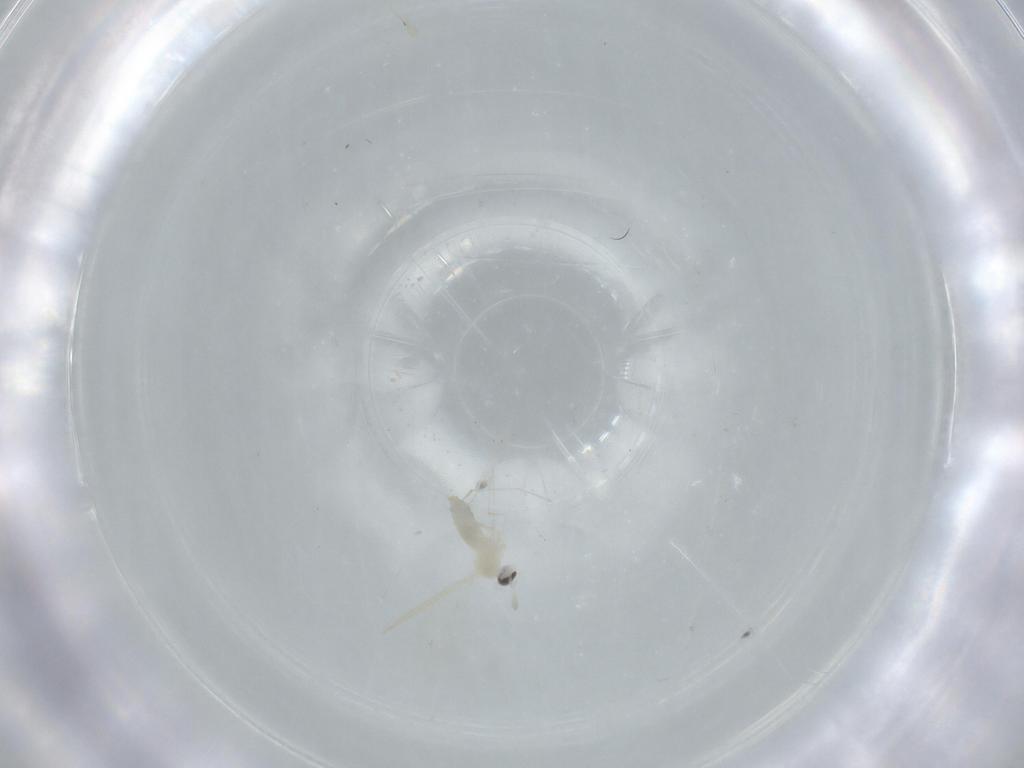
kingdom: Animalia
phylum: Arthropoda
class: Insecta
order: Diptera
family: Cecidomyiidae
